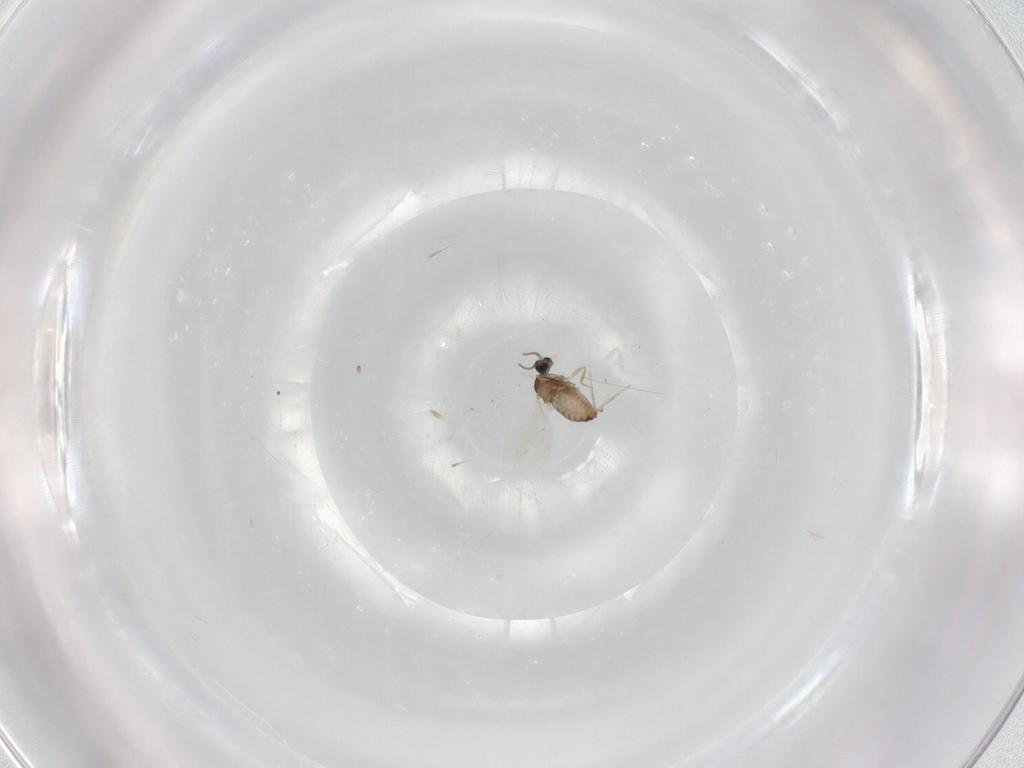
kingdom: Animalia
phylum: Arthropoda
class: Insecta
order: Diptera
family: Cecidomyiidae
